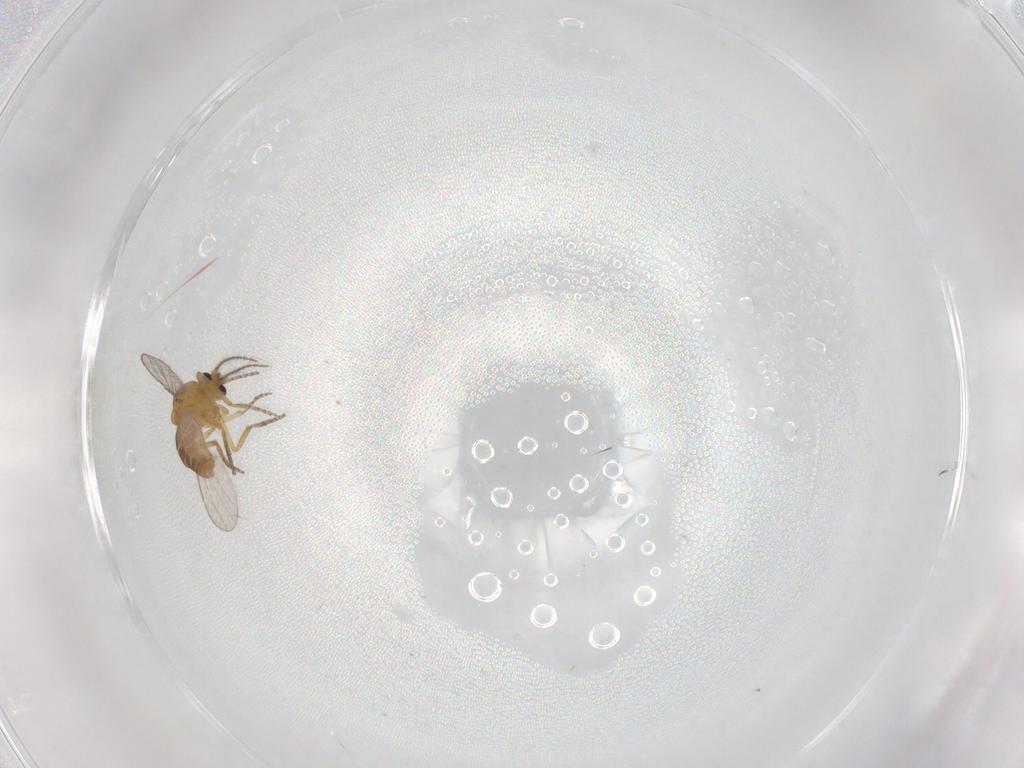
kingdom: Animalia
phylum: Arthropoda
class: Insecta
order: Diptera
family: Ceratopogonidae
